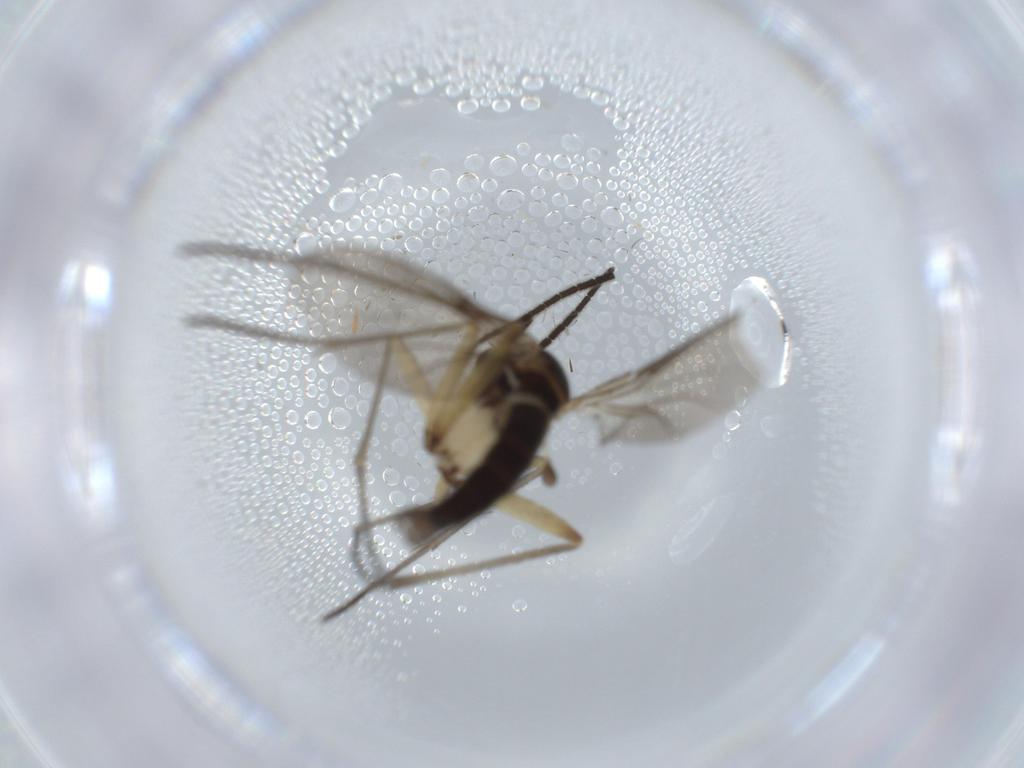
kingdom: Animalia
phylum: Arthropoda
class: Insecta
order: Diptera
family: Sciaridae
